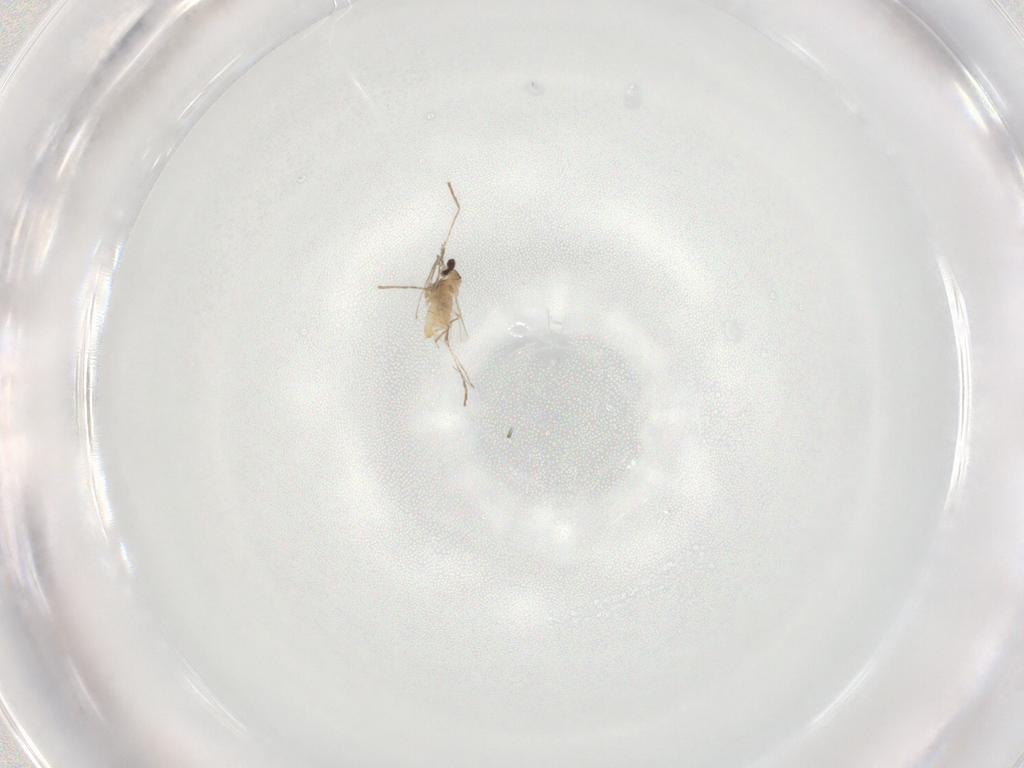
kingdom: Animalia
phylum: Arthropoda
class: Insecta
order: Diptera
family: Cecidomyiidae
